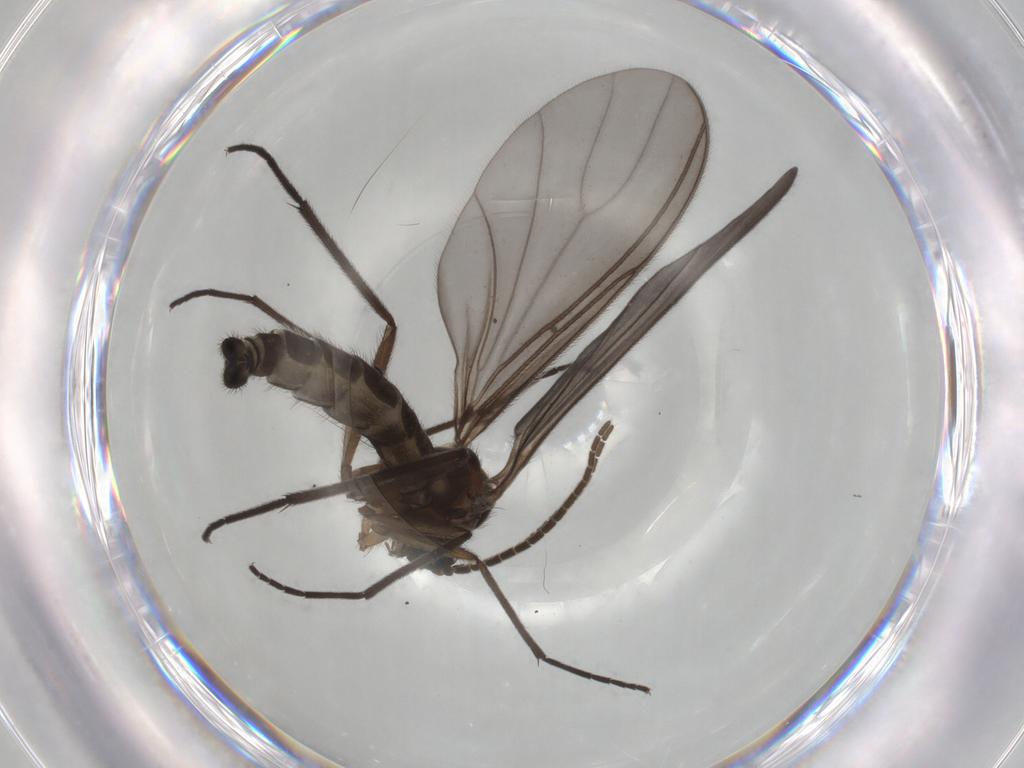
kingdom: Animalia
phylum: Arthropoda
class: Insecta
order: Diptera
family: Sciaridae
